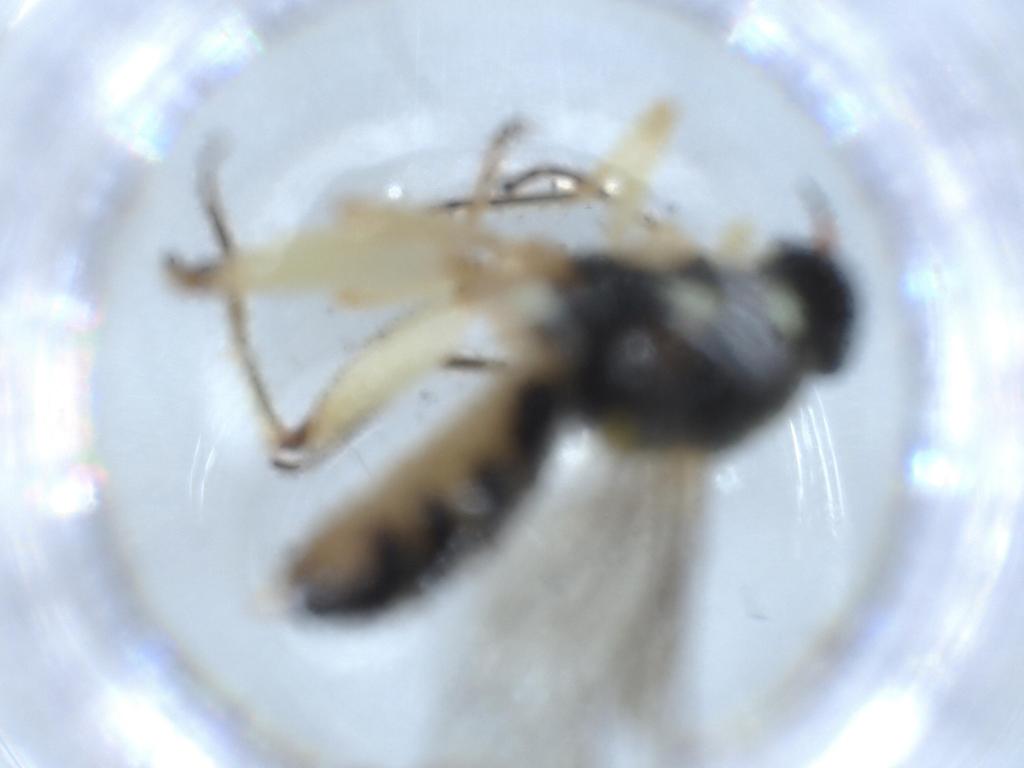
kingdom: Animalia
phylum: Arthropoda
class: Insecta
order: Diptera
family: Sciaridae
